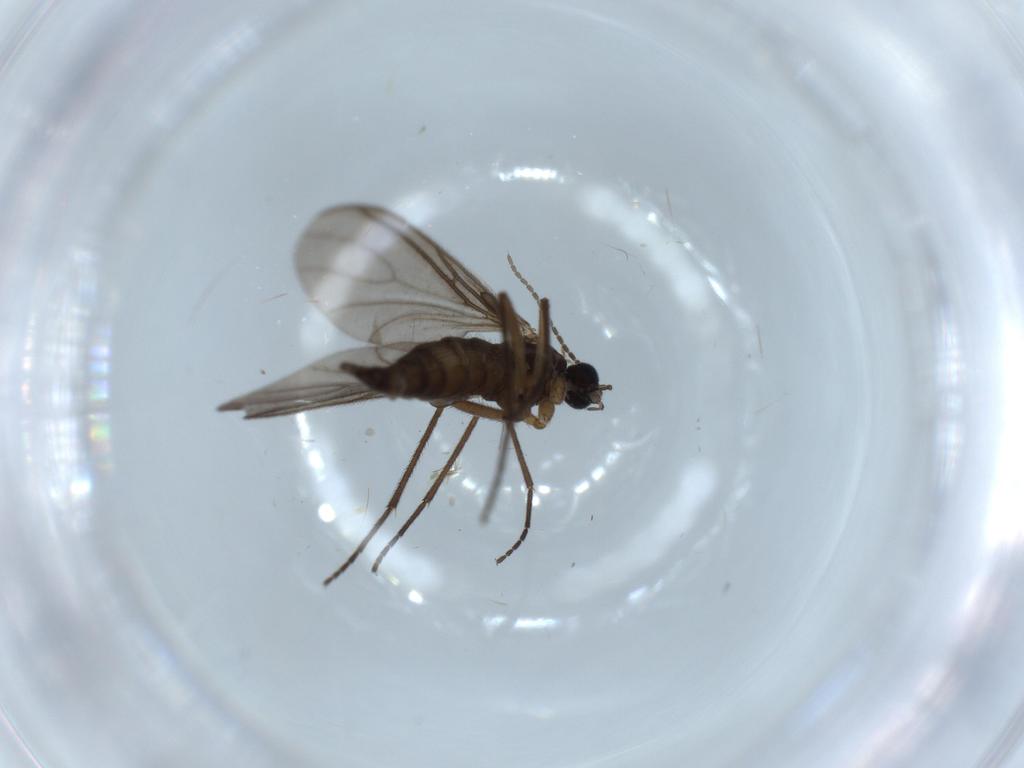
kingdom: Animalia
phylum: Arthropoda
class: Insecta
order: Diptera
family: Sciaridae
